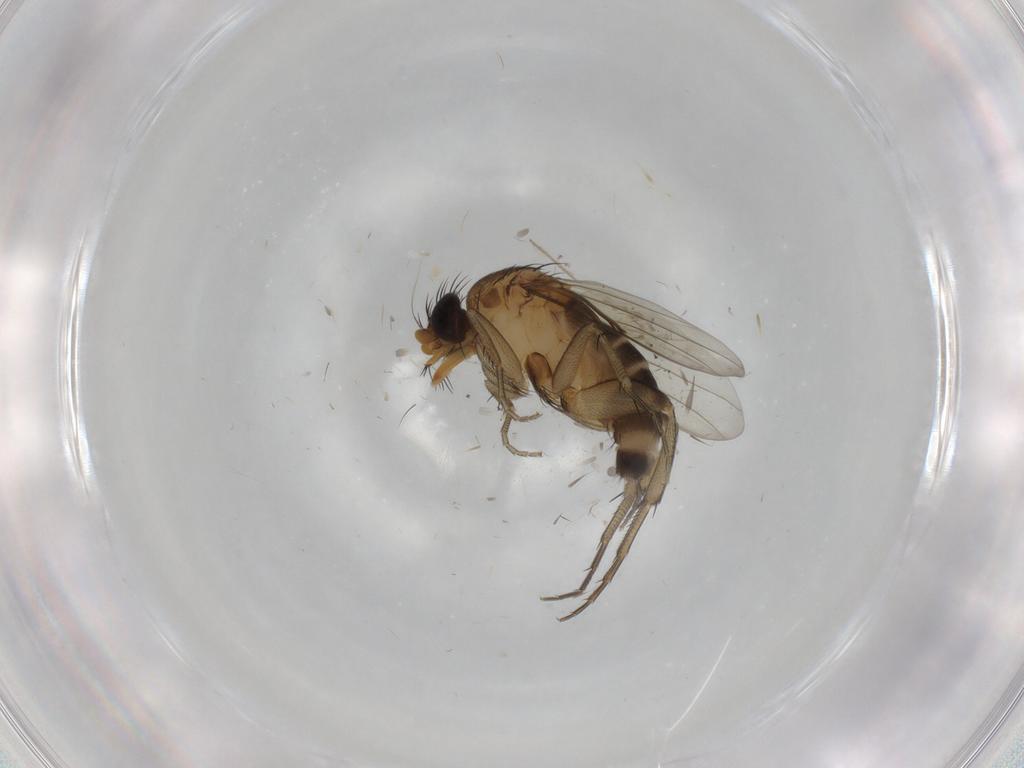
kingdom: Animalia
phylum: Arthropoda
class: Insecta
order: Diptera
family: Phoridae
